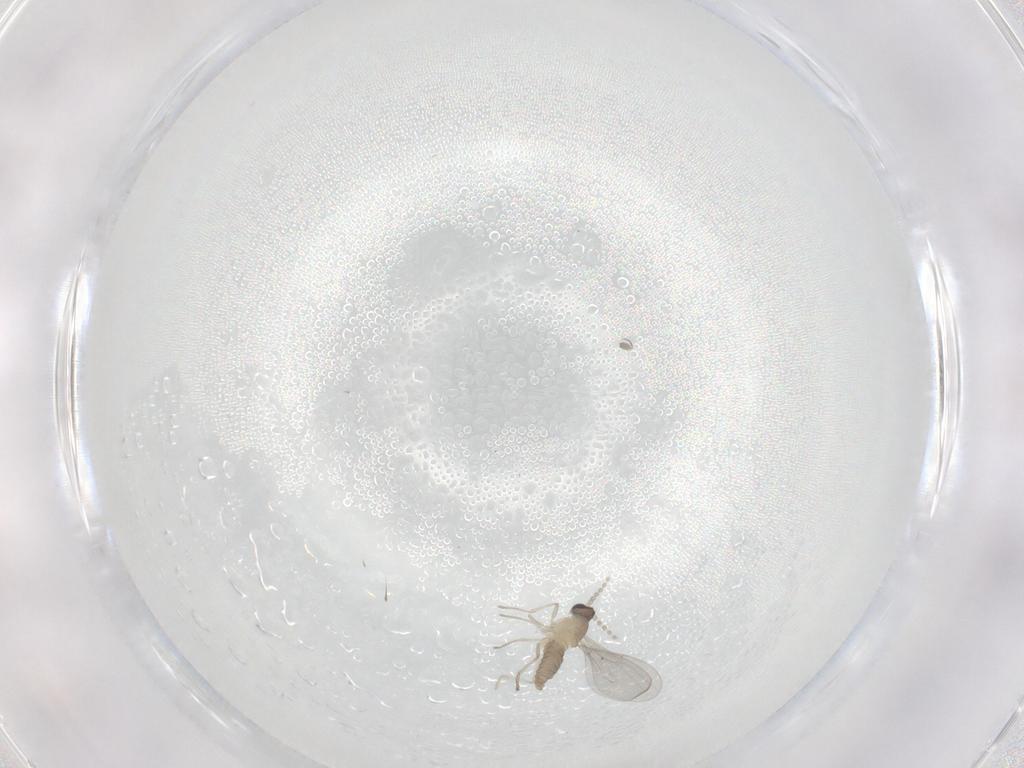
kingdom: Animalia
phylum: Arthropoda
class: Insecta
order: Diptera
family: Cecidomyiidae
